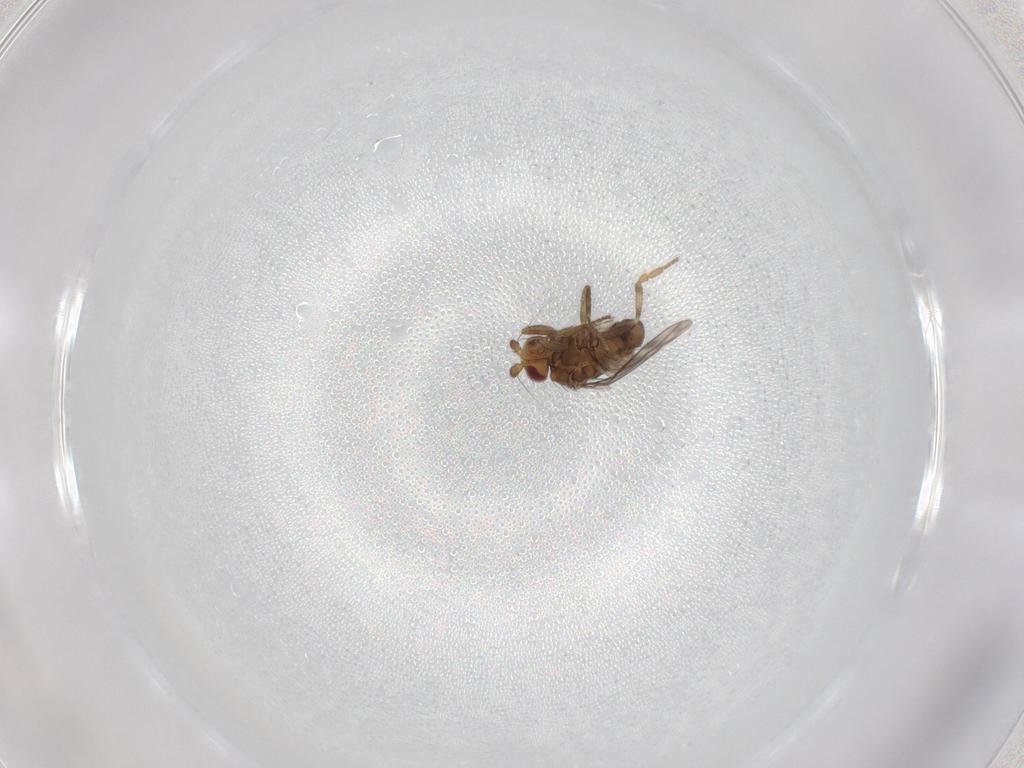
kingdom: Animalia
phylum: Arthropoda
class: Insecta
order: Diptera
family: Sphaeroceridae
